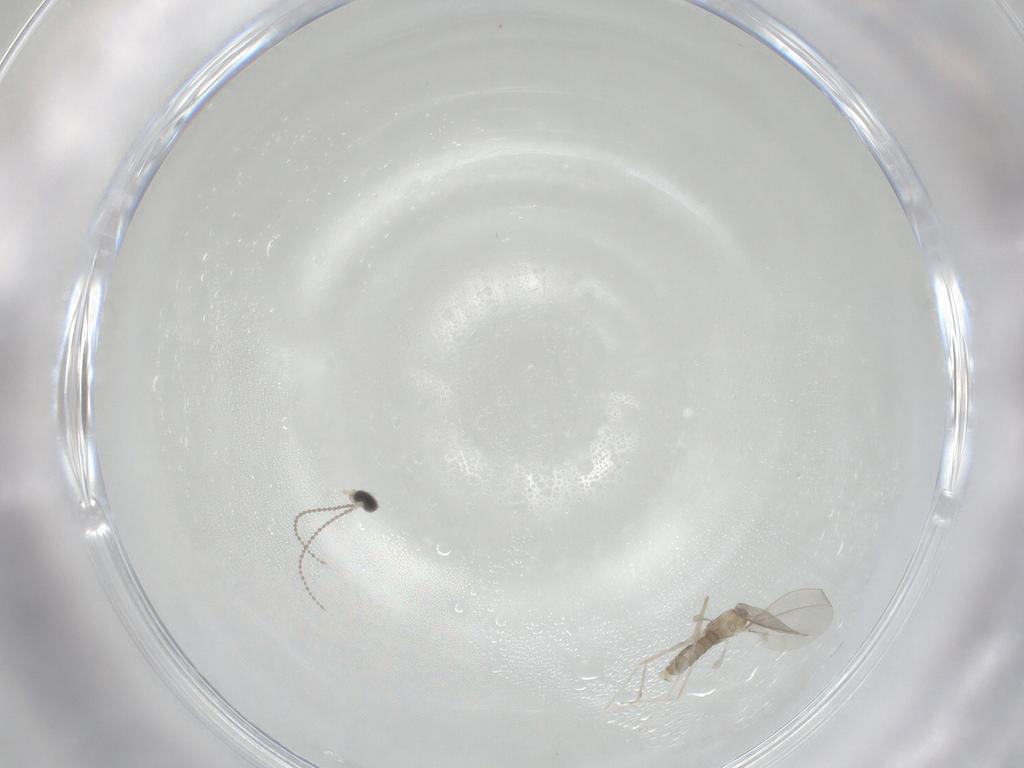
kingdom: Animalia
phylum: Arthropoda
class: Insecta
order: Diptera
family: Cecidomyiidae
